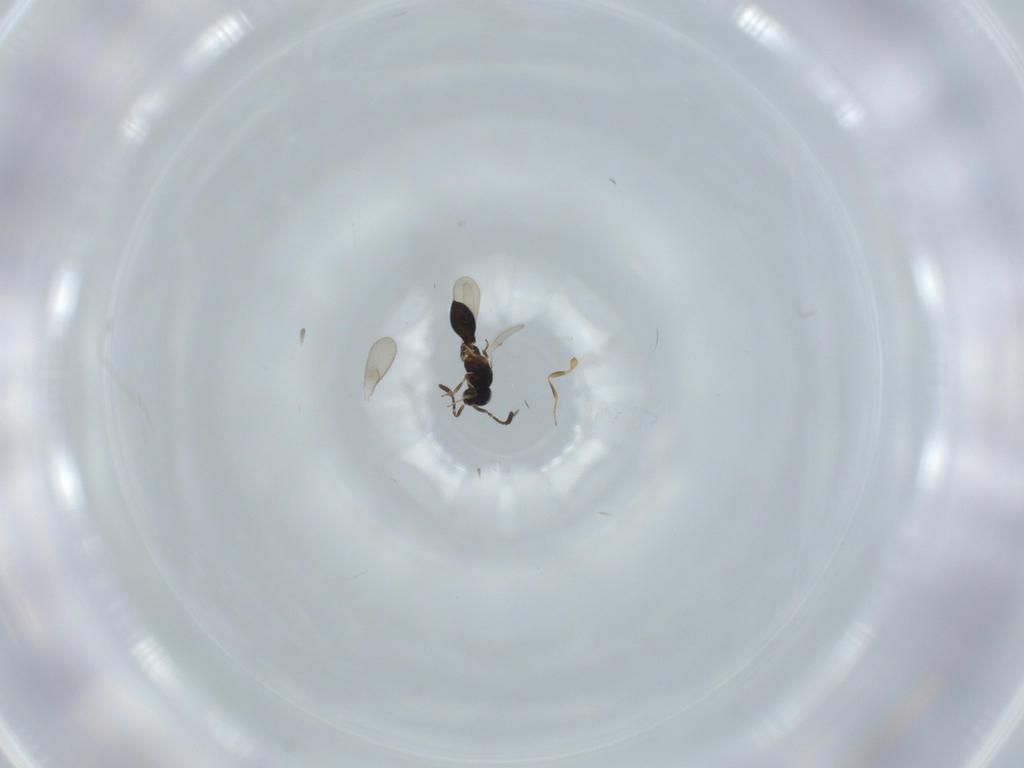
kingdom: Animalia
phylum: Arthropoda
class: Insecta
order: Hymenoptera
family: Scelionidae
